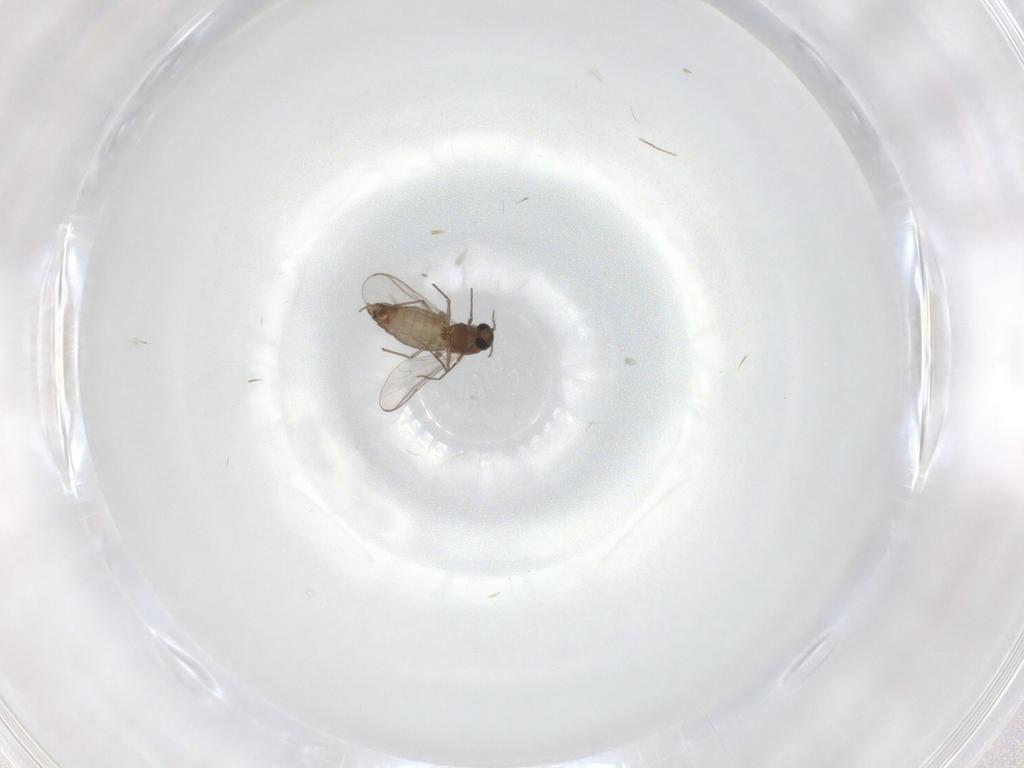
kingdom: Animalia
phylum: Arthropoda
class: Insecta
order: Diptera
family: Chironomidae
